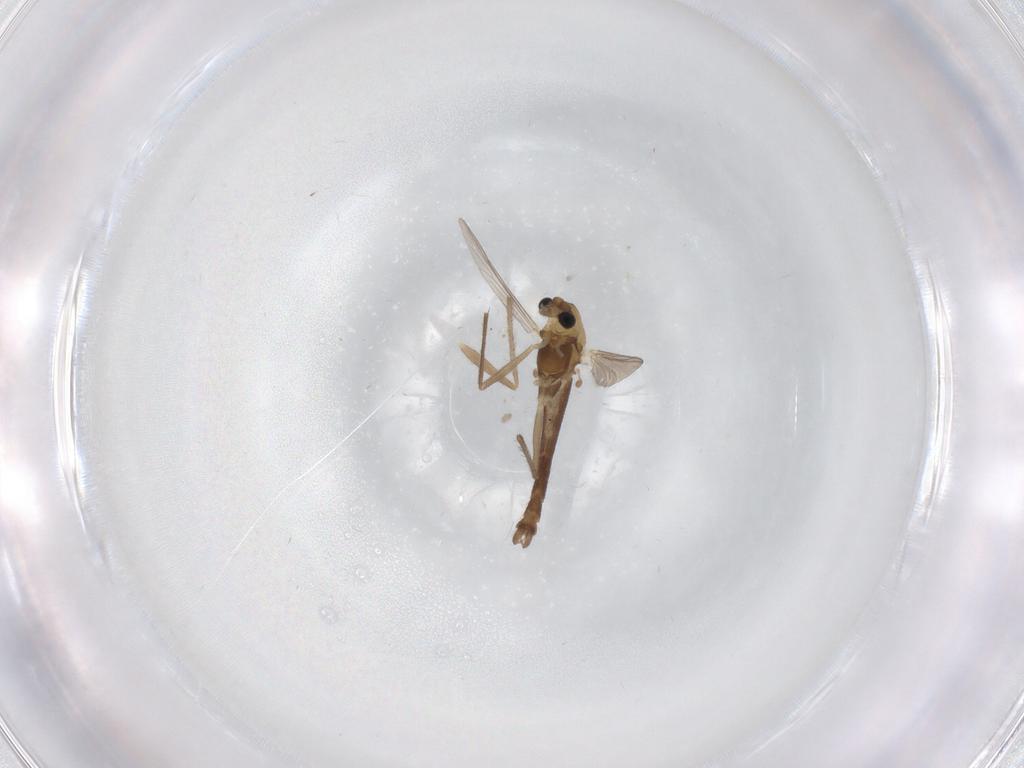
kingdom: Animalia
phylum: Arthropoda
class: Insecta
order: Diptera
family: Chironomidae
